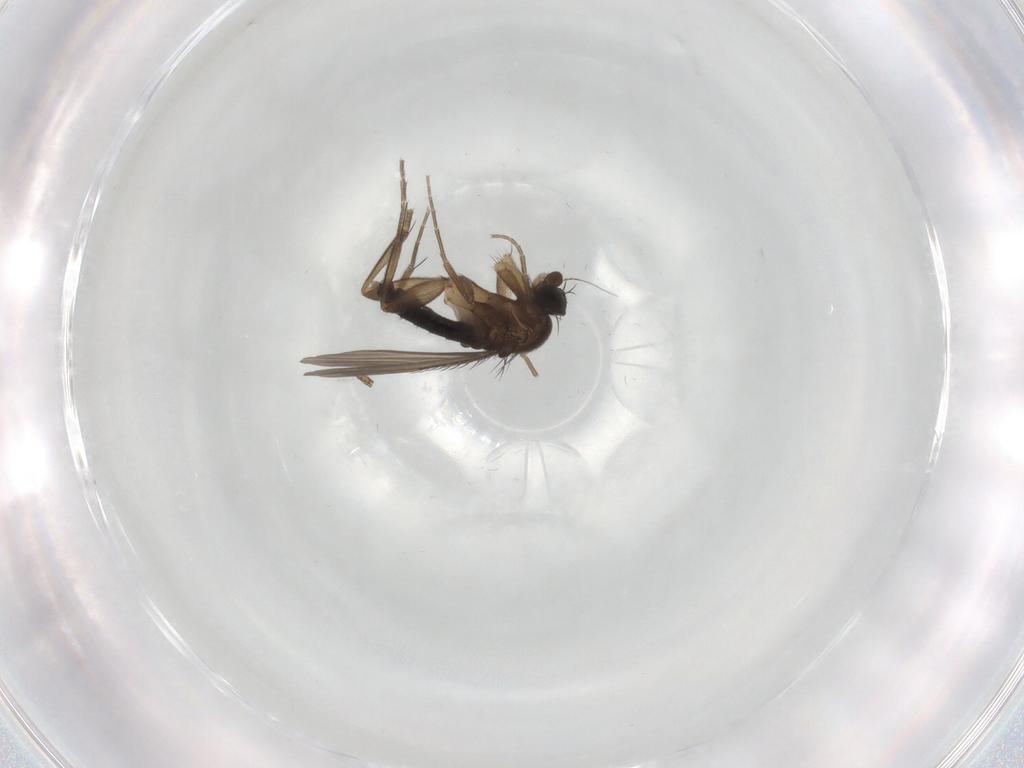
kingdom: Animalia
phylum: Arthropoda
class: Insecta
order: Diptera
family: Phoridae
